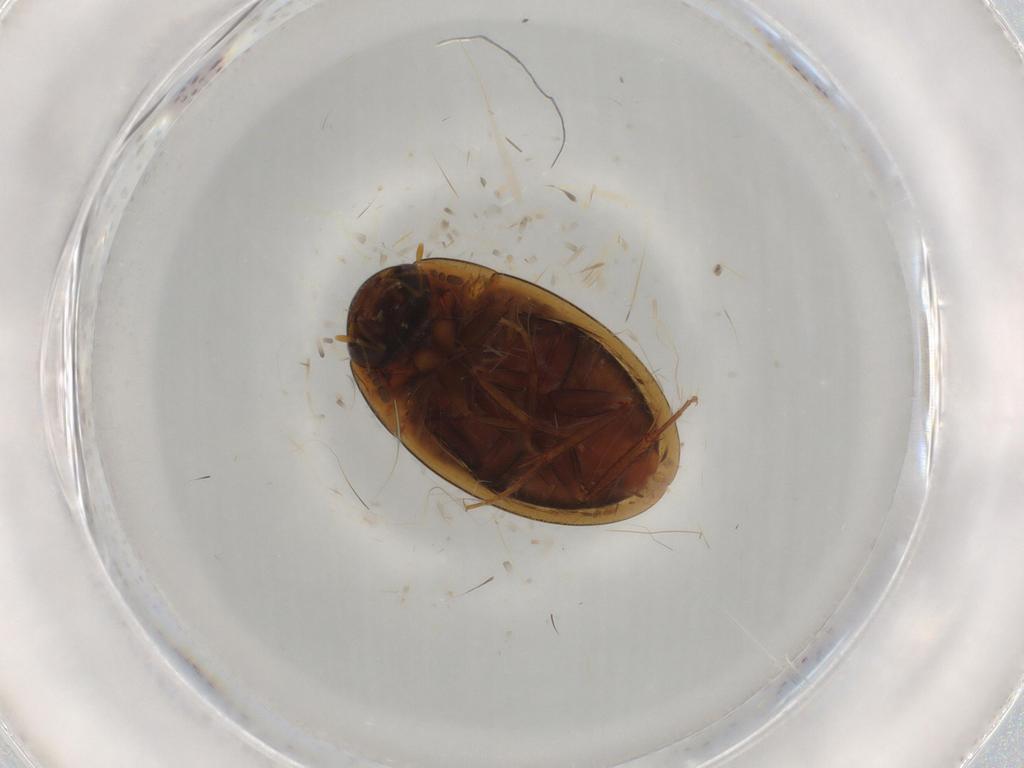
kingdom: Animalia
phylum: Arthropoda
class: Insecta
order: Coleoptera
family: Hydrophilidae
